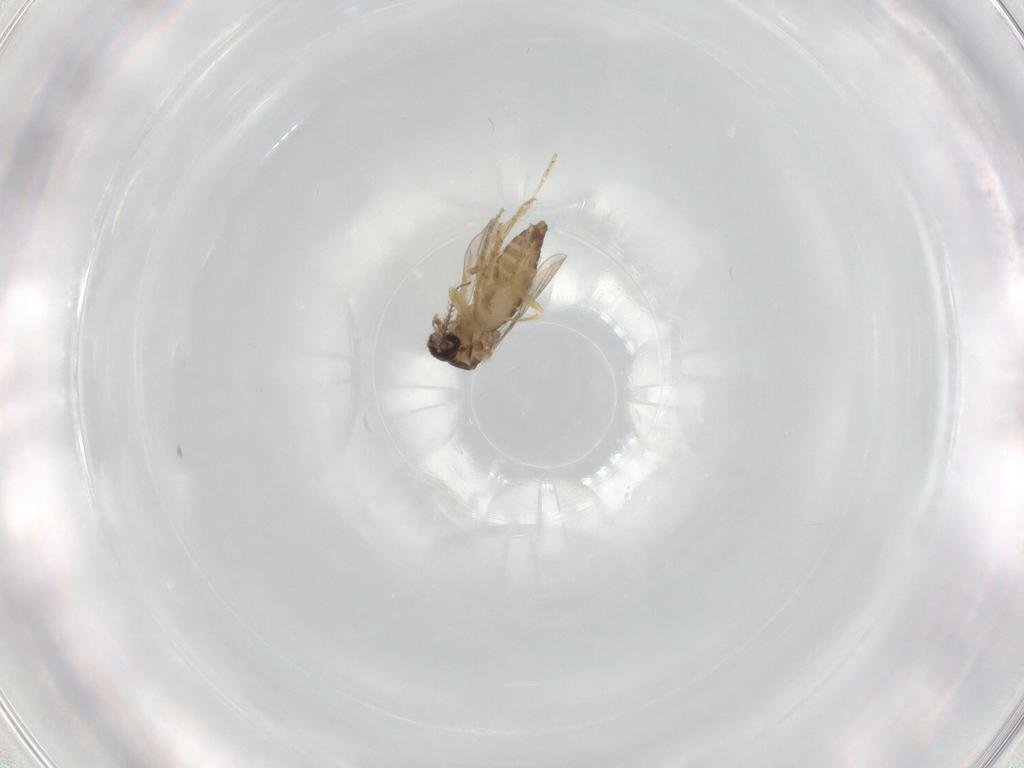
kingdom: Animalia
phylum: Arthropoda
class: Insecta
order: Diptera
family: Ceratopogonidae
